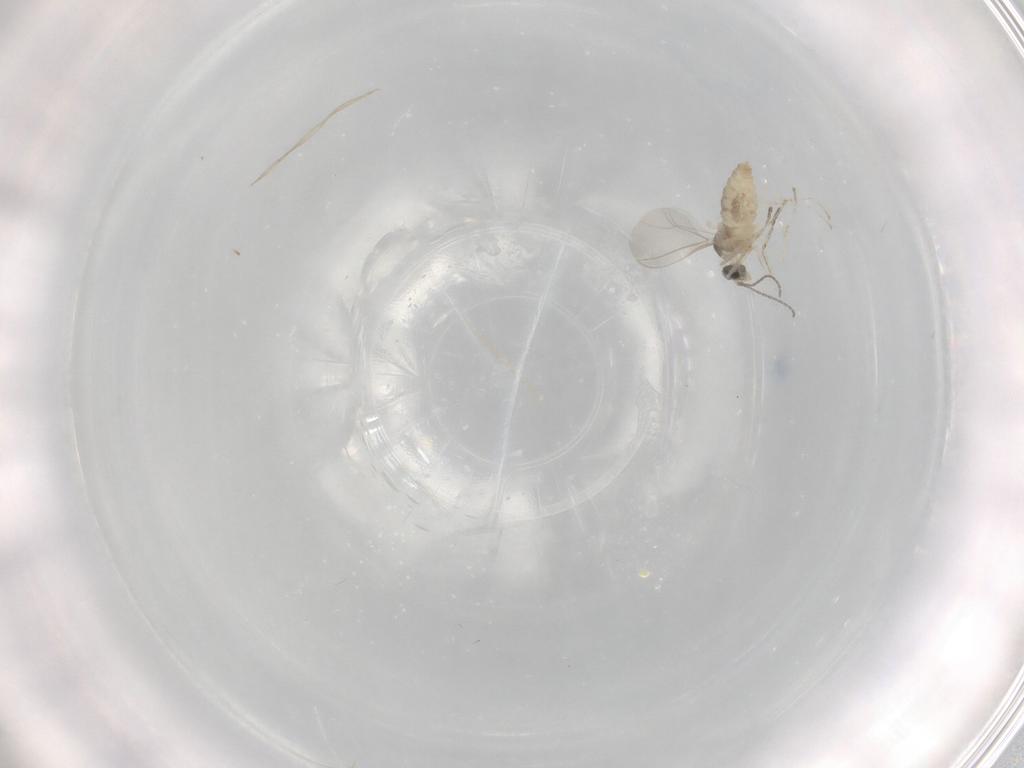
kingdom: Animalia
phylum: Arthropoda
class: Insecta
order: Diptera
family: Cecidomyiidae
